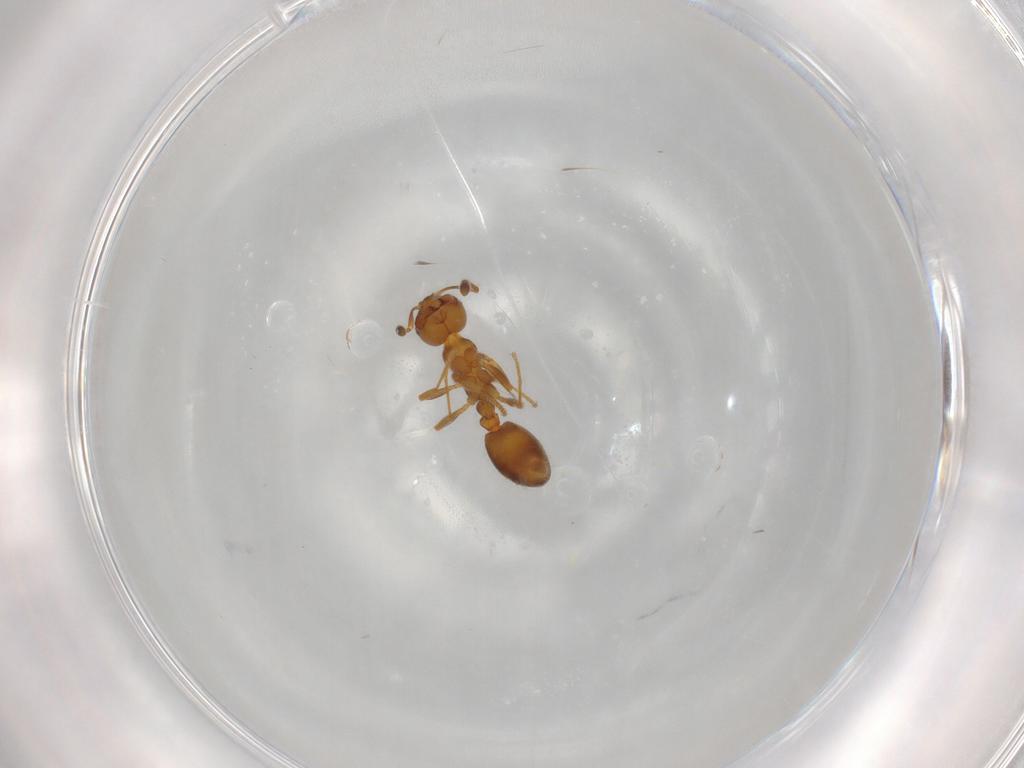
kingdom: Animalia
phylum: Arthropoda
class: Insecta
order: Hymenoptera
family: Formicidae
